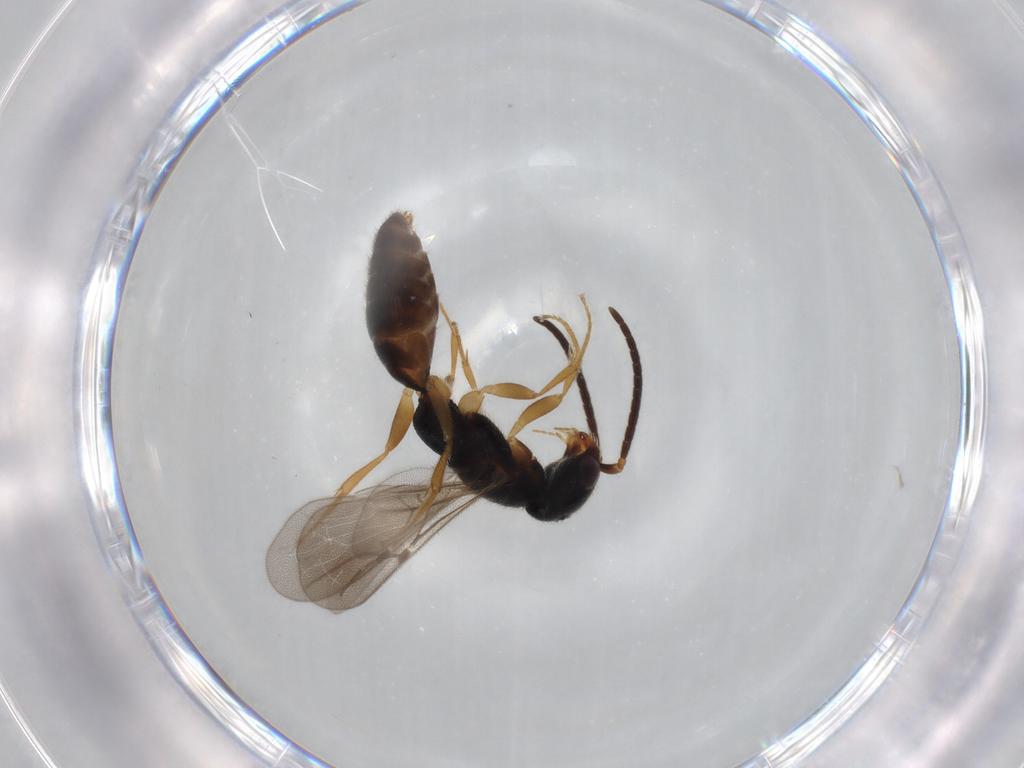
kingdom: Animalia
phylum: Arthropoda
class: Insecta
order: Hymenoptera
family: Bethylidae
